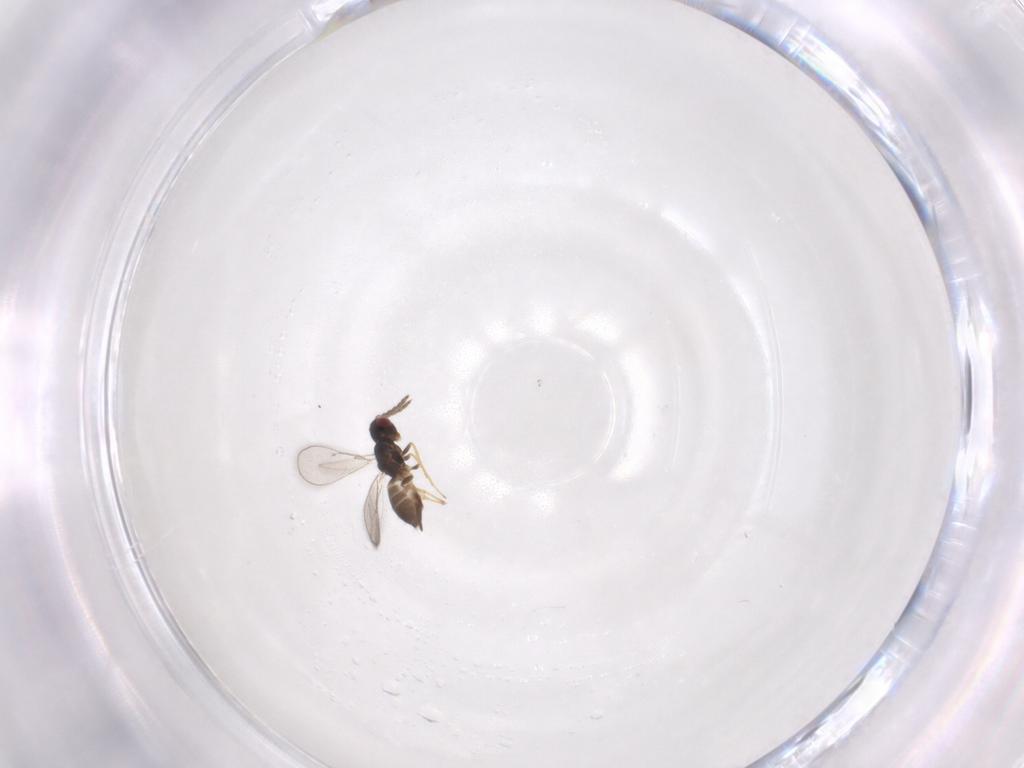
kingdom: Animalia
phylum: Arthropoda
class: Insecta
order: Hymenoptera
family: Eulophidae
